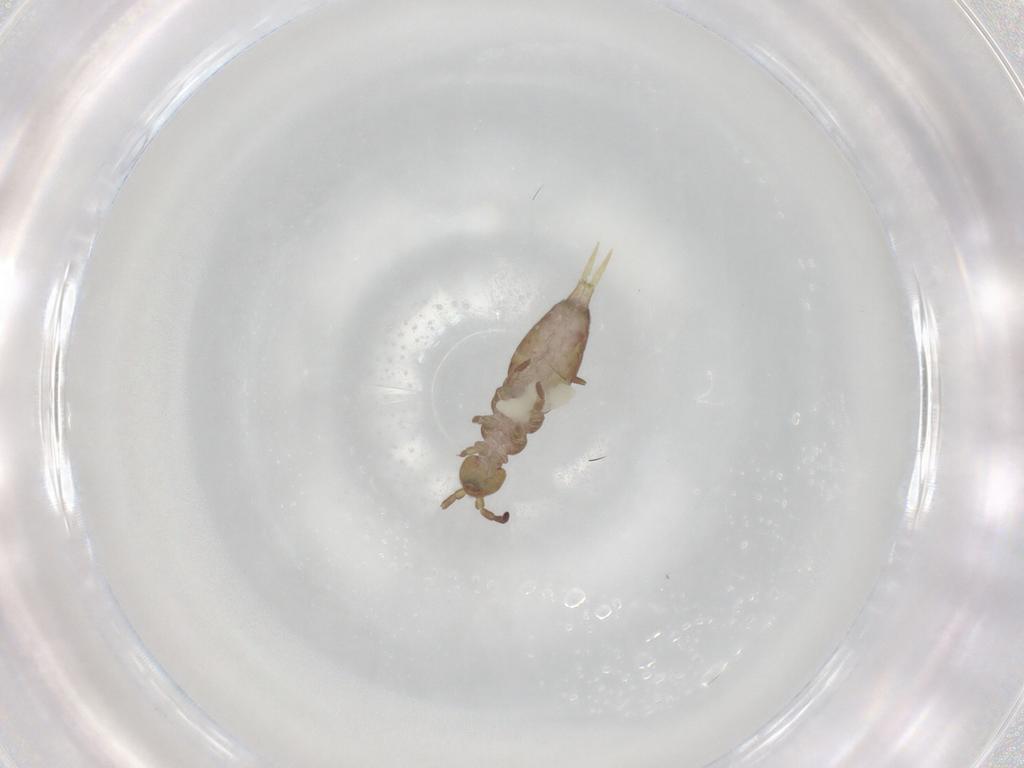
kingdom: Animalia
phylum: Arthropoda
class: Collembola
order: Entomobryomorpha
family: Isotomidae
